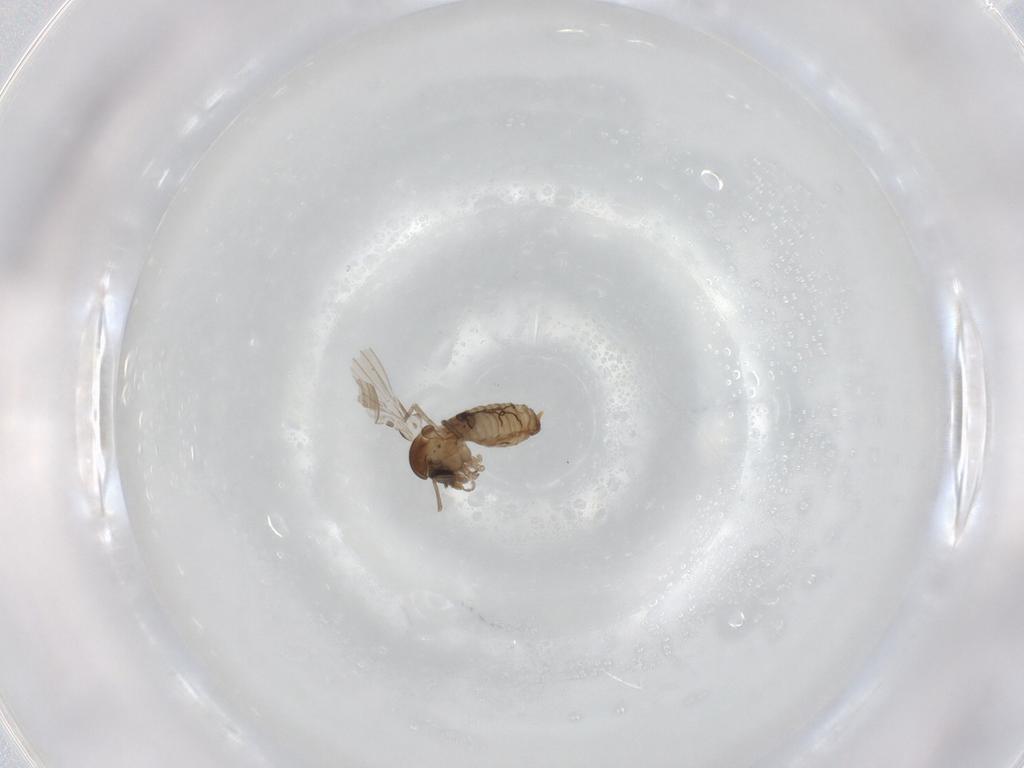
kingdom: Animalia
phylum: Arthropoda
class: Insecta
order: Diptera
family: Psychodidae
